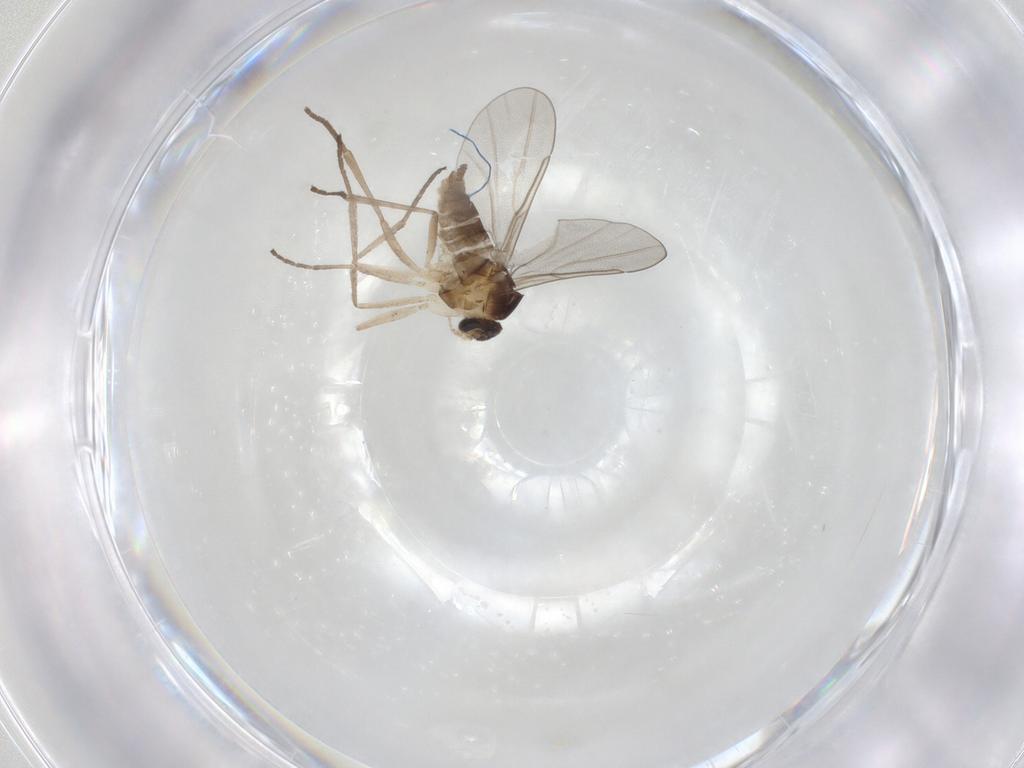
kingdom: Animalia
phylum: Arthropoda
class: Insecta
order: Diptera
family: Cecidomyiidae
